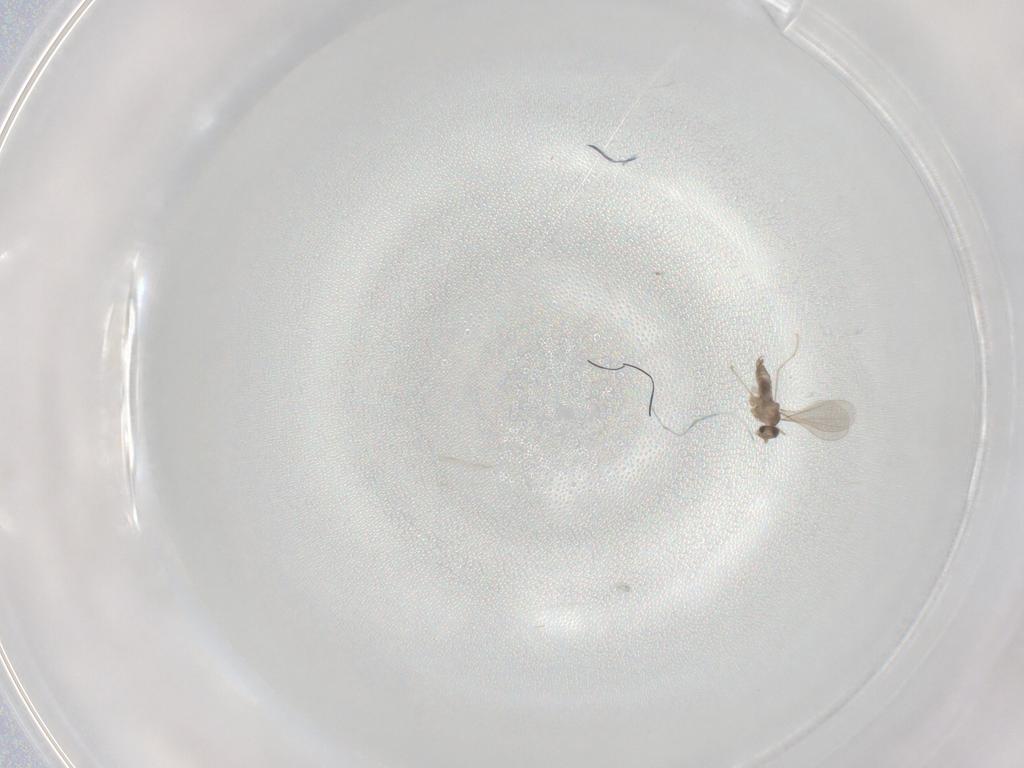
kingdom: Animalia
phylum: Arthropoda
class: Insecta
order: Diptera
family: Cecidomyiidae
